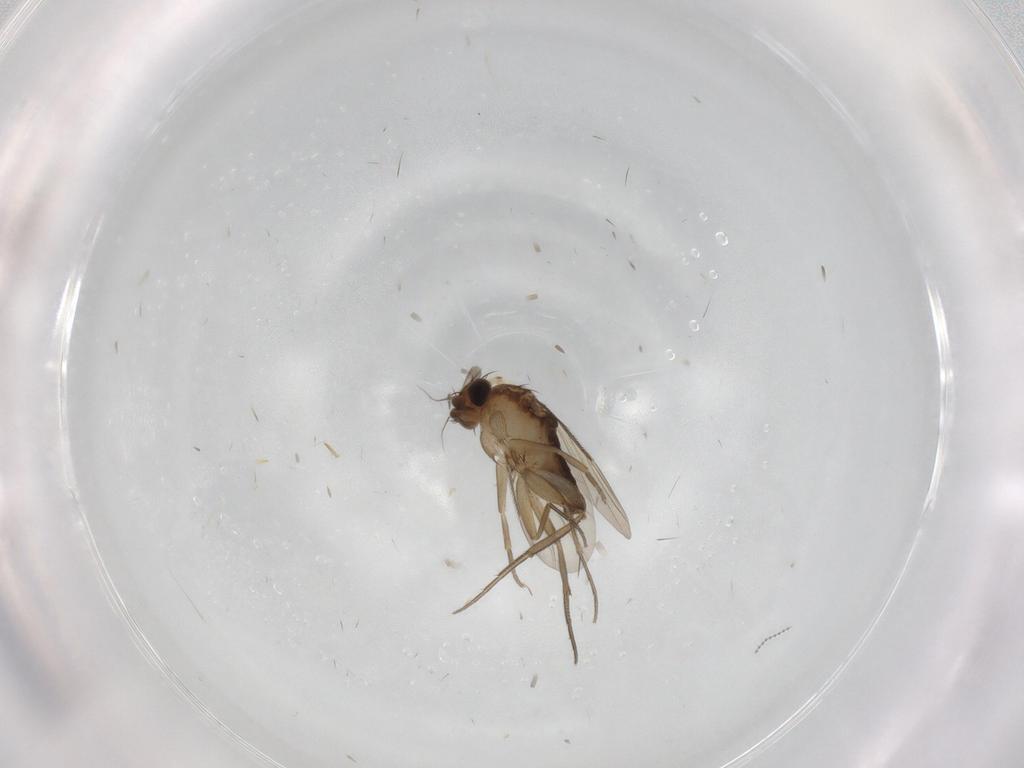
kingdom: Animalia
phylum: Arthropoda
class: Insecta
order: Diptera
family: Phoridae
